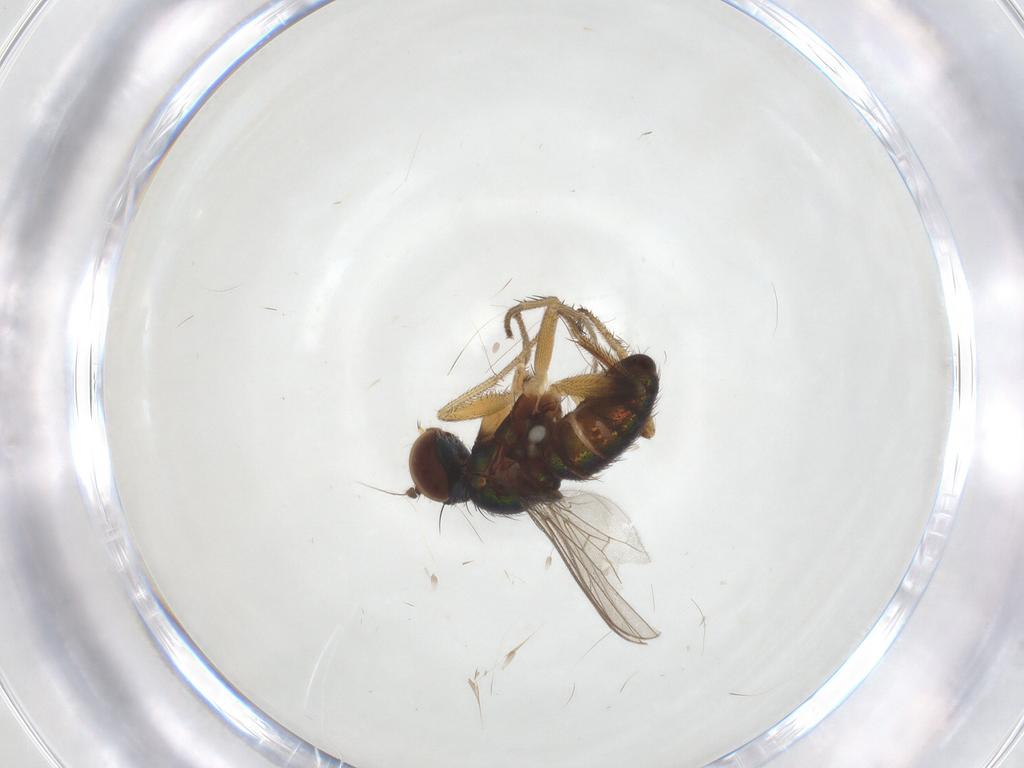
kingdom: Animalia
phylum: Arthropoda
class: Insecta
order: Diptera
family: Dolichopodidae
